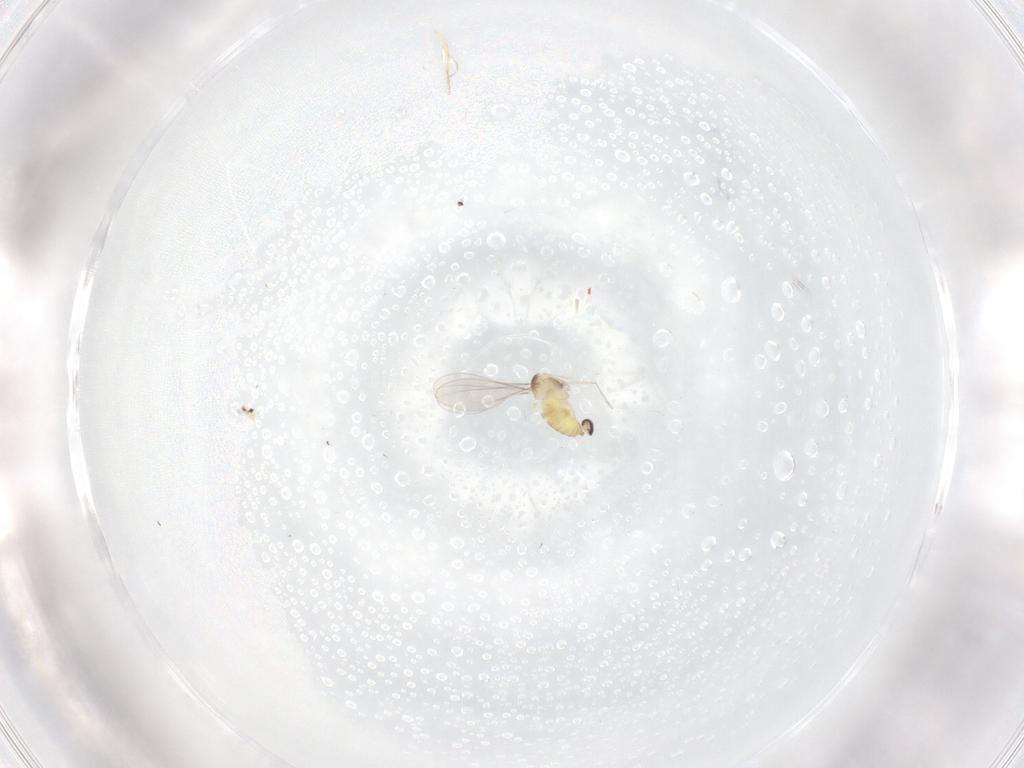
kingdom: Animalia
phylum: Arthropoda
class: Insecta
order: Diptera
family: Cecidomyiidae
